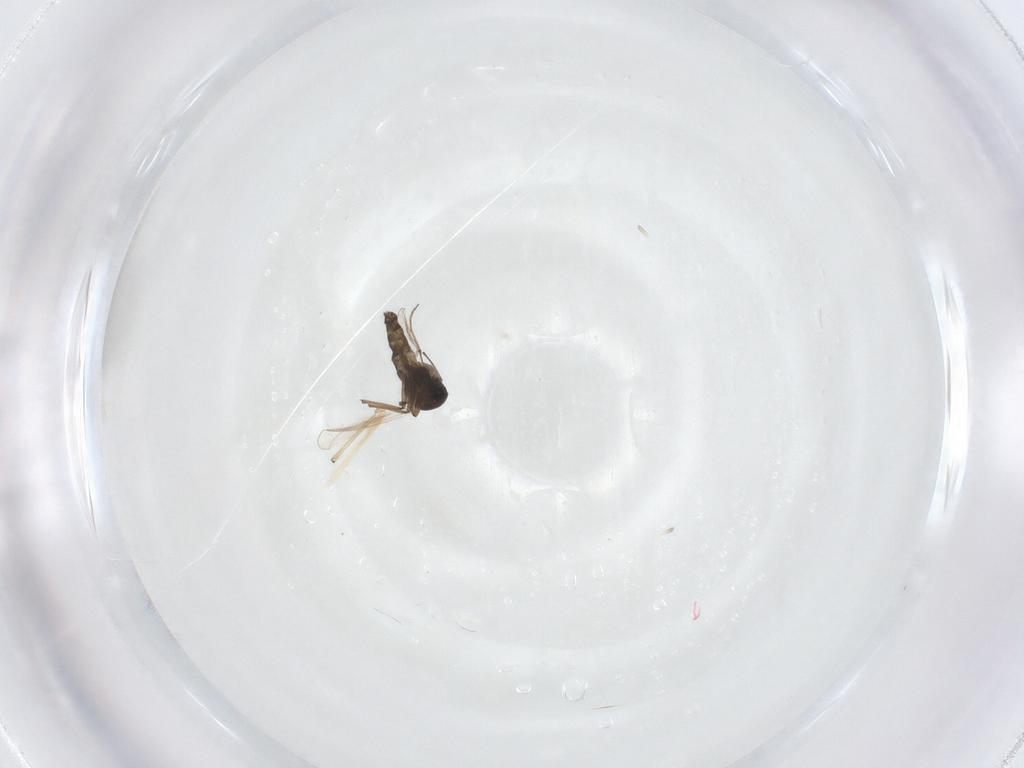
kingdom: Animalia
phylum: Arthropoda
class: Insecta
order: Diptera
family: Chironomidae
